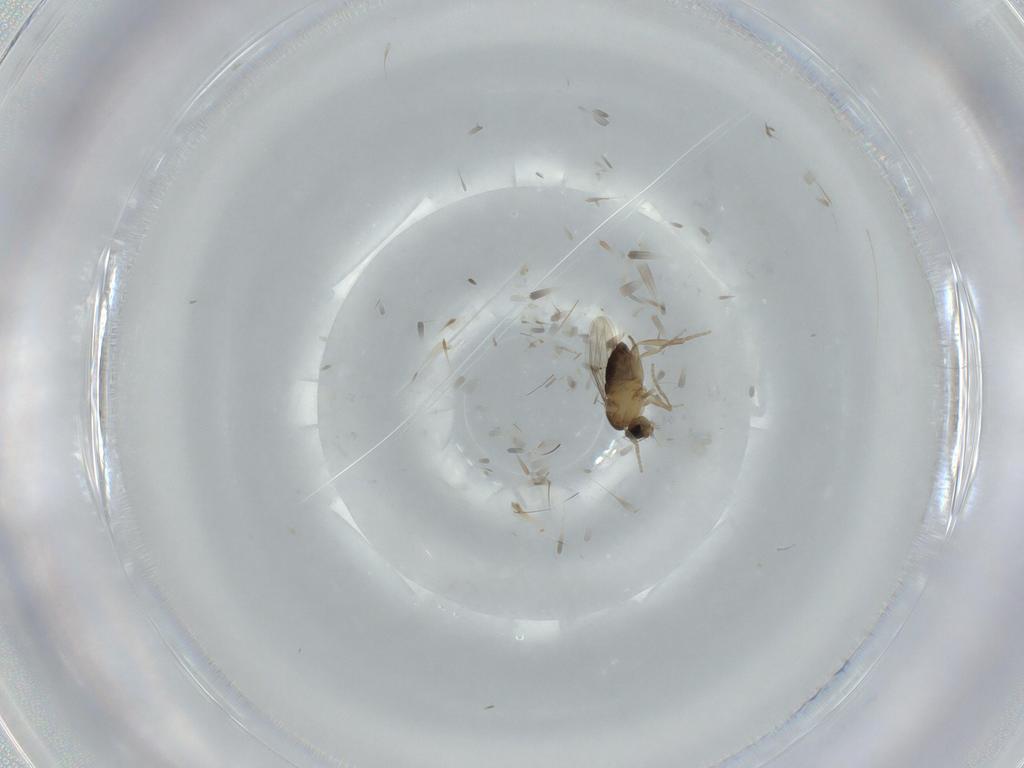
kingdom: Animalia
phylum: Arthropoda
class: Insecta
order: Diptera
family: Phoridae
